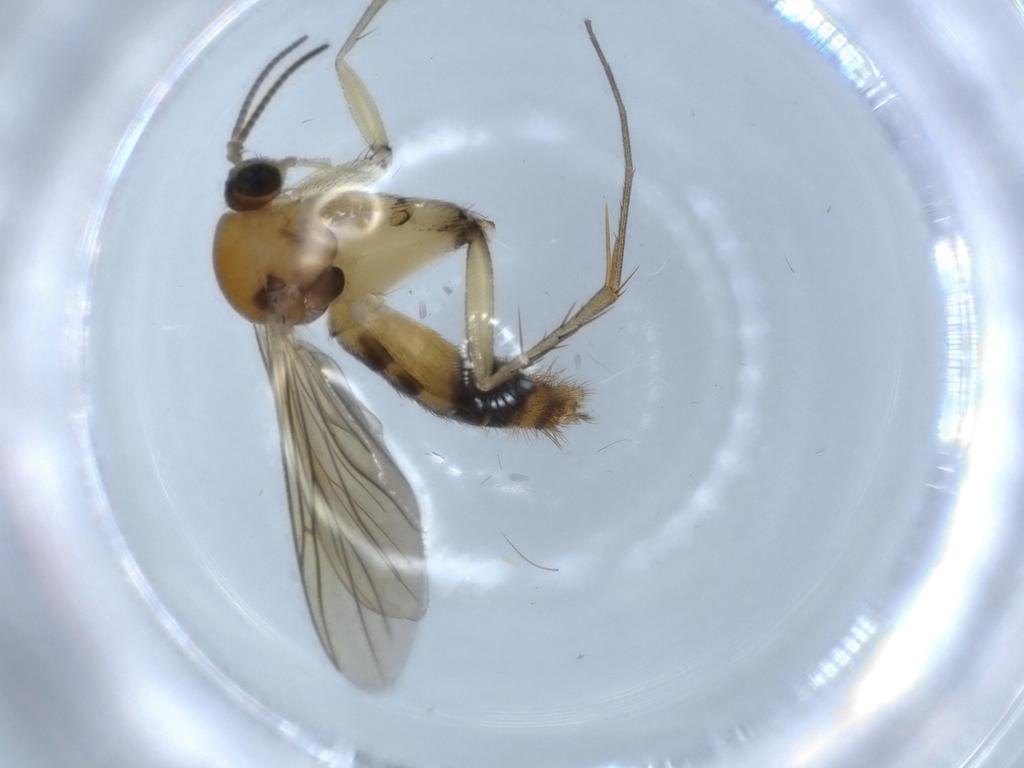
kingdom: Animalia
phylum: Arthropoda
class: Insecta
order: Diptera
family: Mycetophilidae
